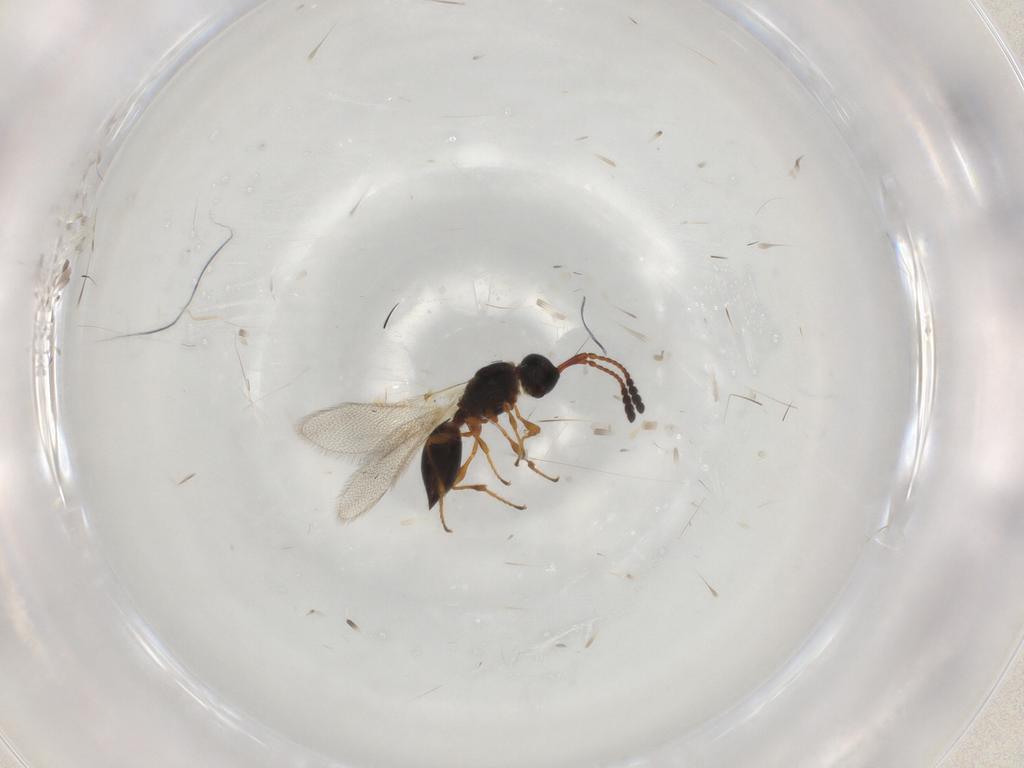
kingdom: Animalia
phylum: Arthropoda
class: Insecta
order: Hymenoptera
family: Diapriidae
